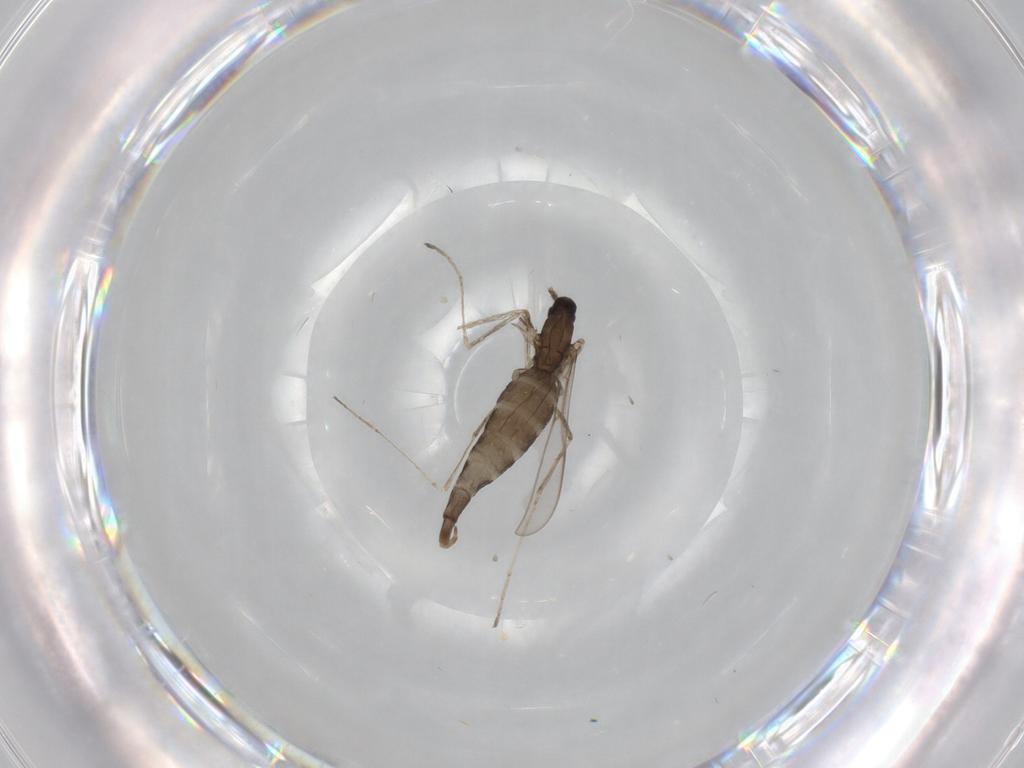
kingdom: Animalia
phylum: Arthropoda
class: Insecta
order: Diptera
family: Cecidomyiidae
